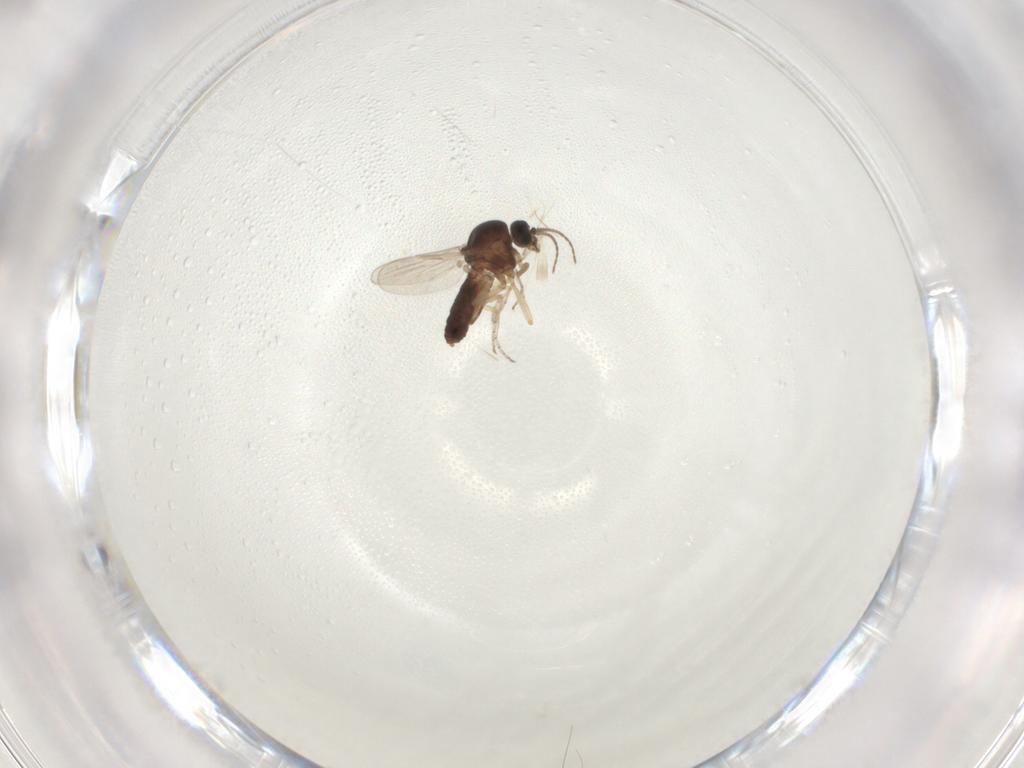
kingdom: Animalia
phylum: Arthropoda
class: Insecta
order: Diptera
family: Ceratopogonidae
